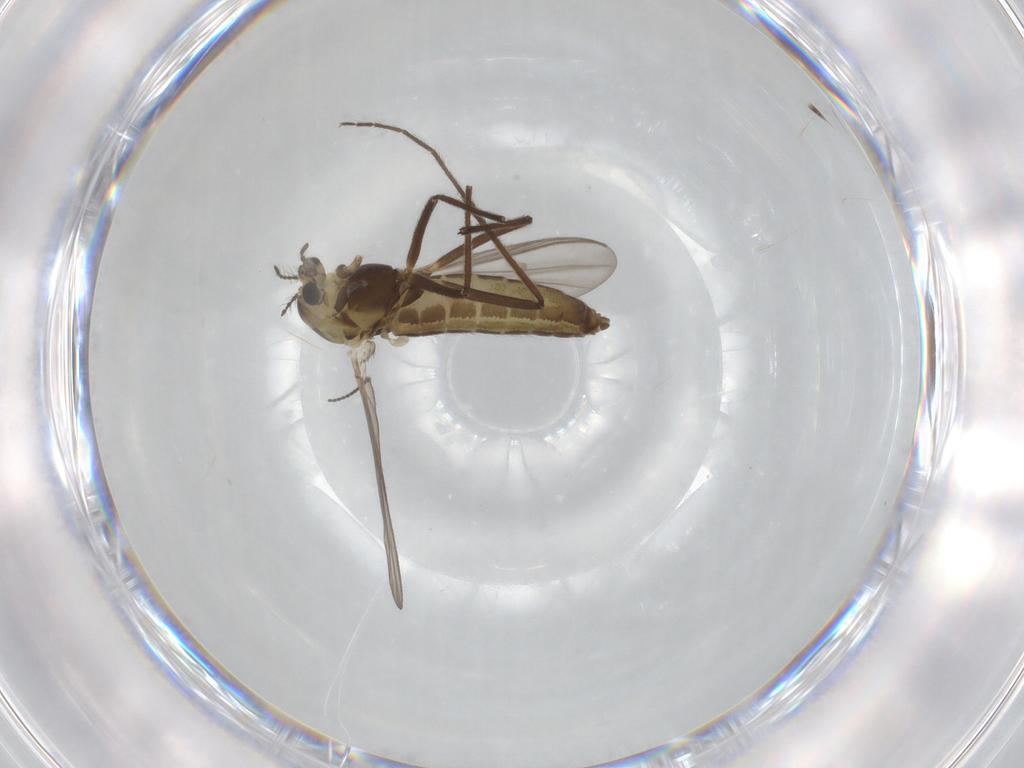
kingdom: Animalia
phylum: Arthropoda
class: Insecta
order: Diptera
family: Chironomidae
